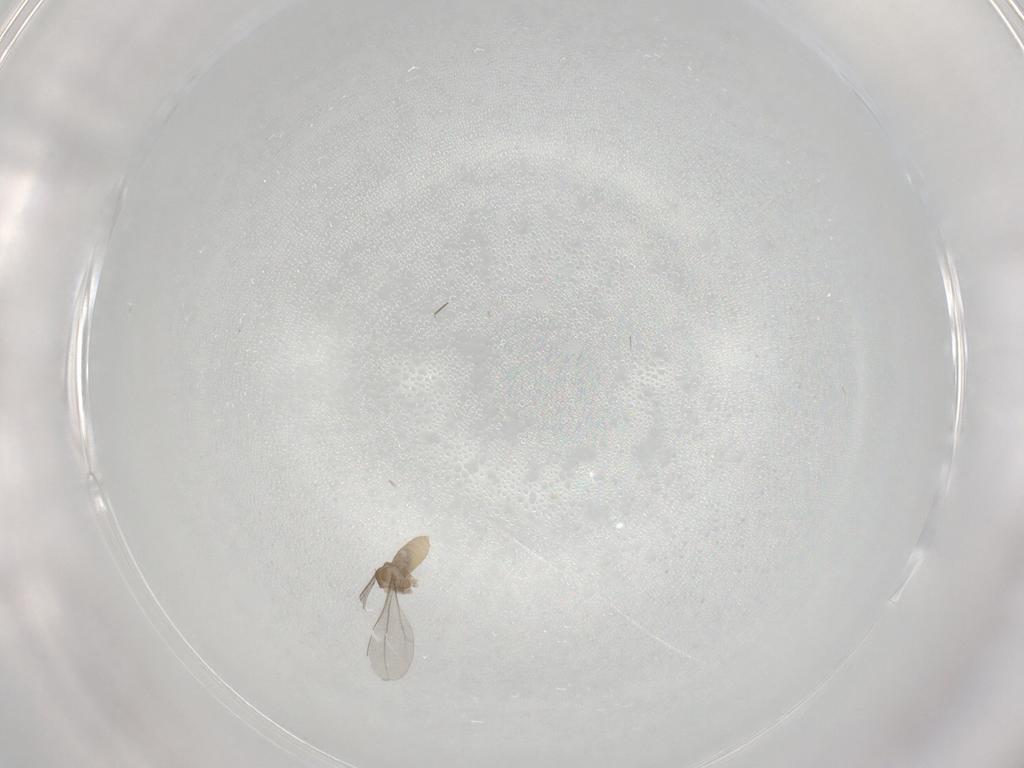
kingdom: Animalia
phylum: Arthropoda
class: Insecta
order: Diptera
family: Cecidomyiidae
